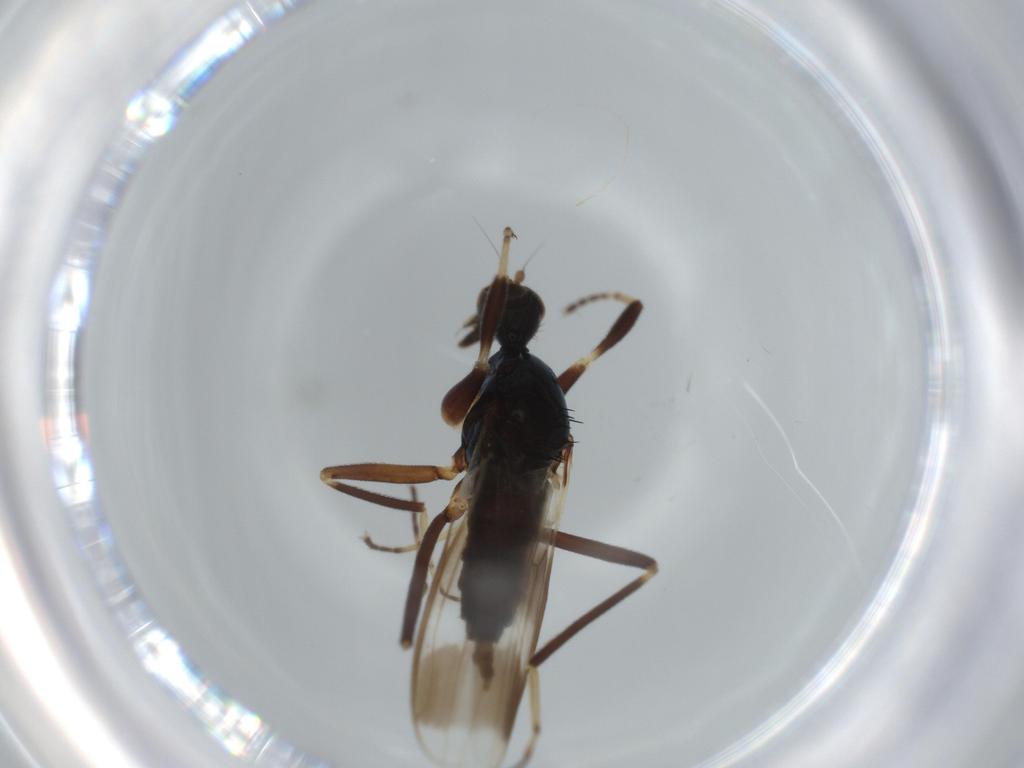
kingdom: Animalia
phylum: Arthropoda
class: Insecta
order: Diptera
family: Hybotidae
